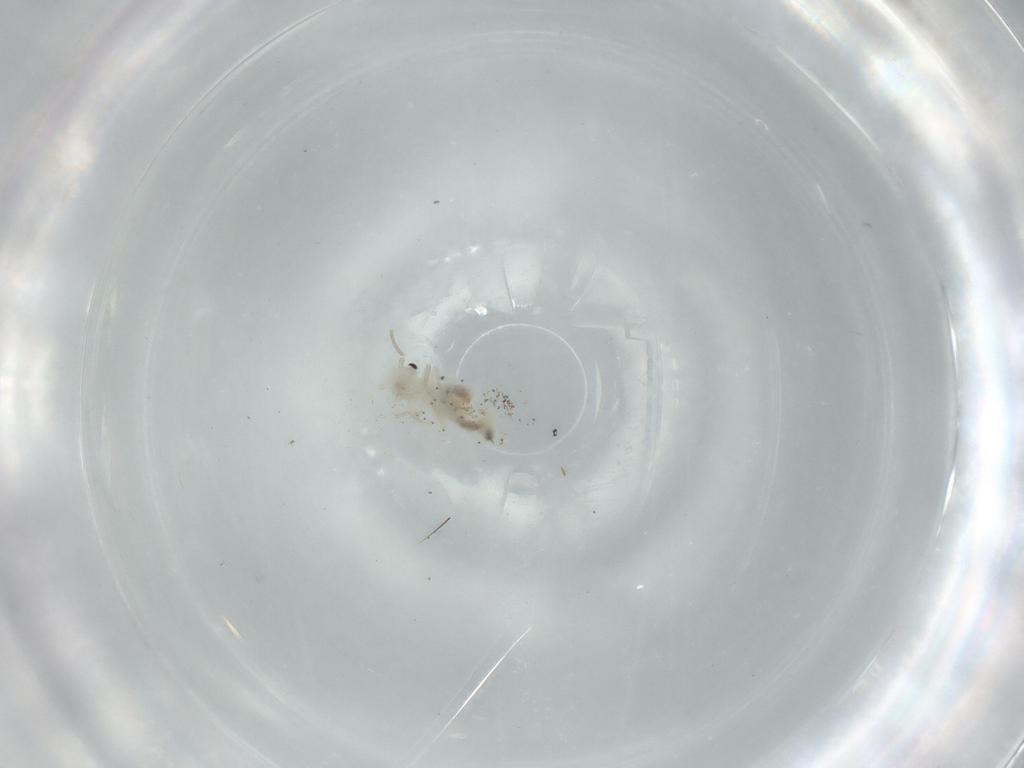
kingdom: Animalia
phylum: Arthropoda
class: Insecta
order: Psocodea
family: Caeciliusidae
